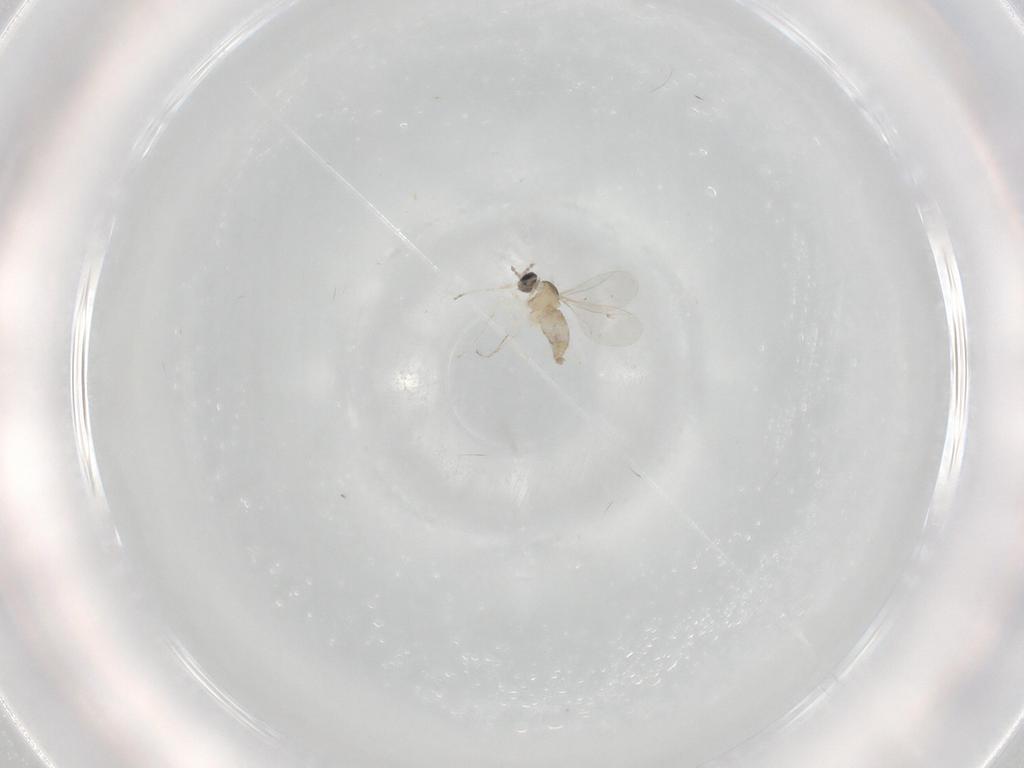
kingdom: Animalia
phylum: Arthropoda
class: Insecta
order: Diptera
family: Cecidomyiidae
